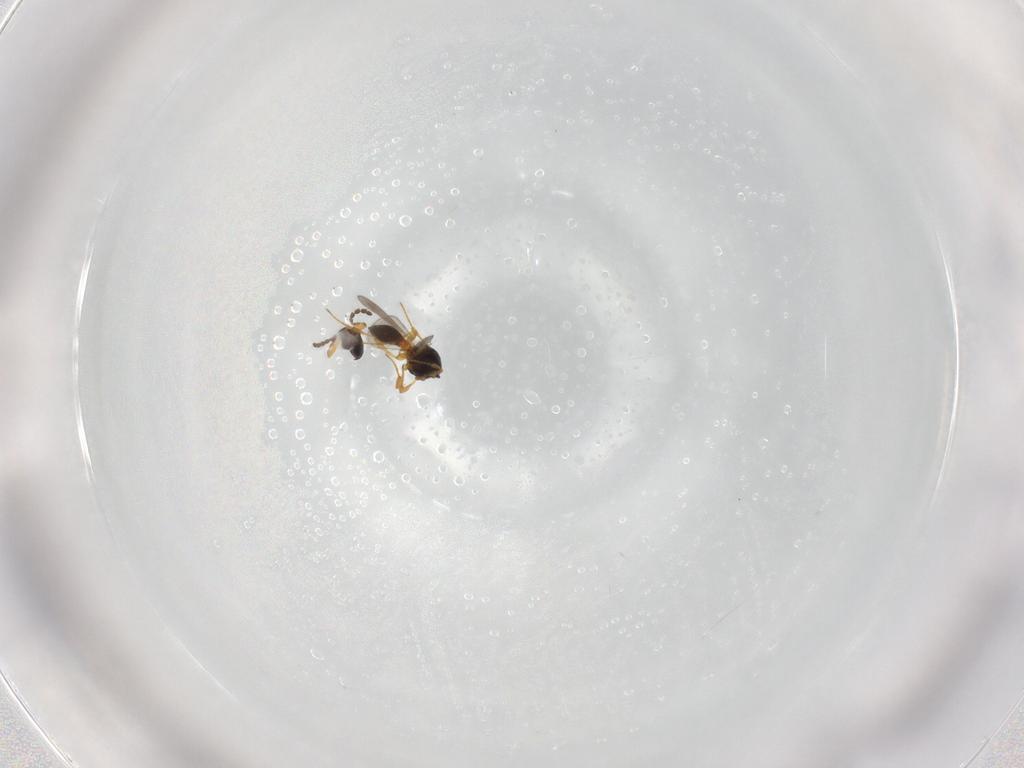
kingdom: Animalia
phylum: Arthropoda
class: Insecta
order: Hymenoptera
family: Platygastridae
